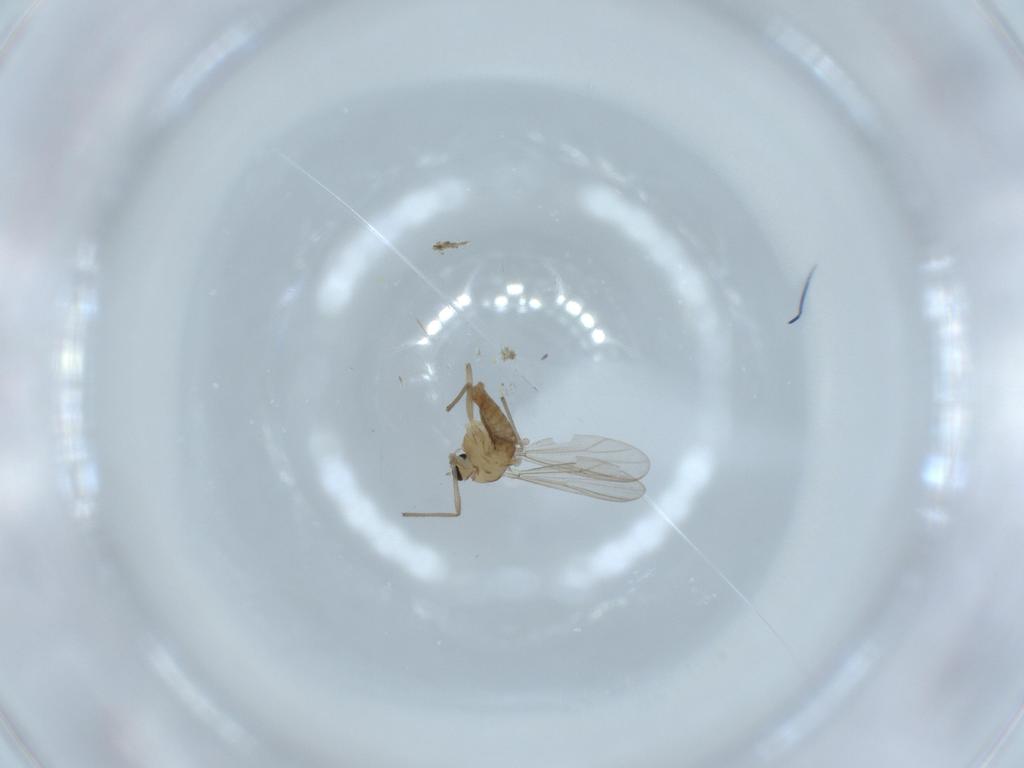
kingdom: Animalia
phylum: Arthropoda
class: Insecta
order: Diptera
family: Chironomidae
